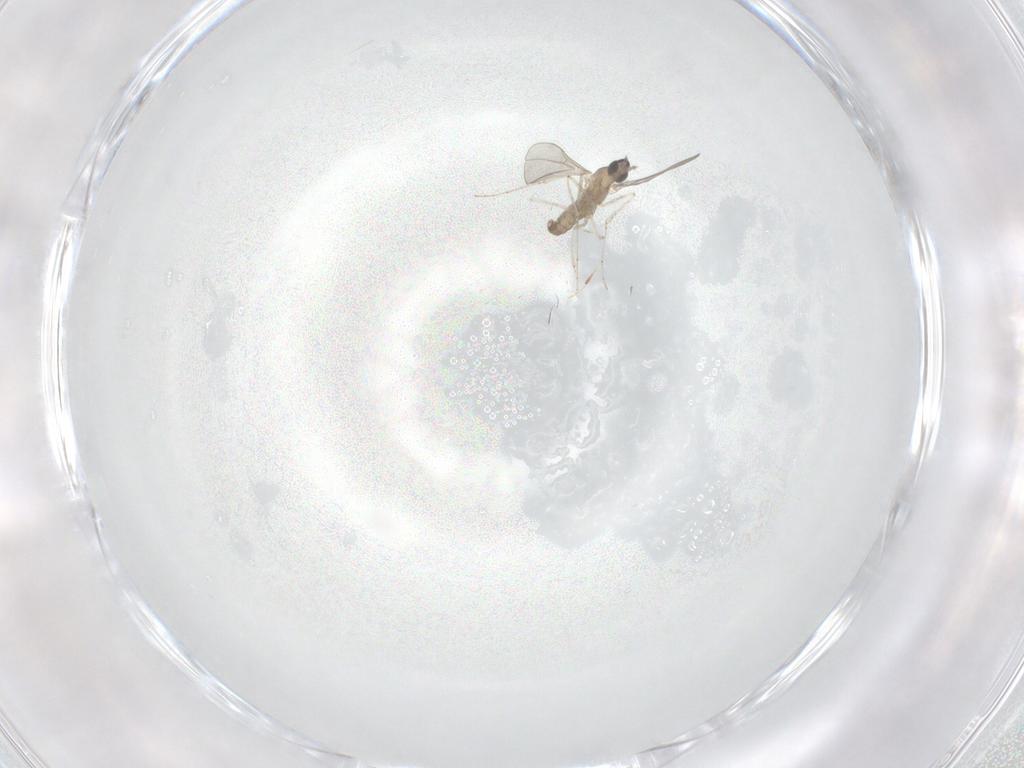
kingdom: Animalia
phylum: Arthropoda
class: Insecta
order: Diptera
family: Cecidomyiidae
